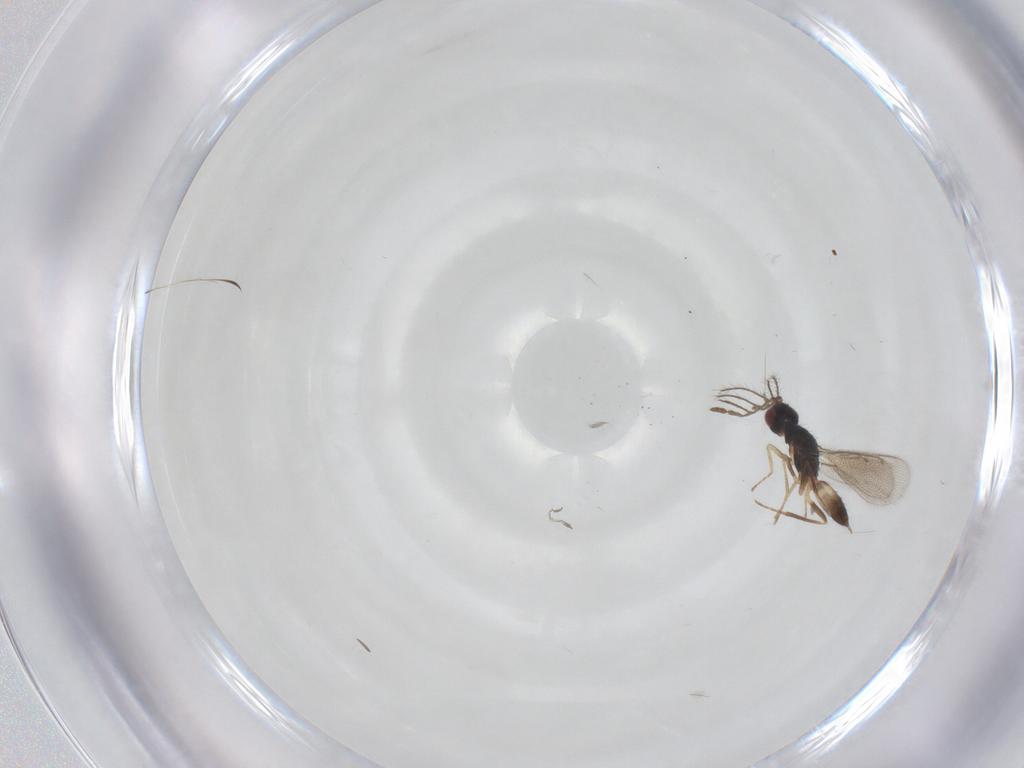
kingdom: Animalia
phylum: Arthropoda
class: Insecta
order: Hymenoptera
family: Eulophidae
